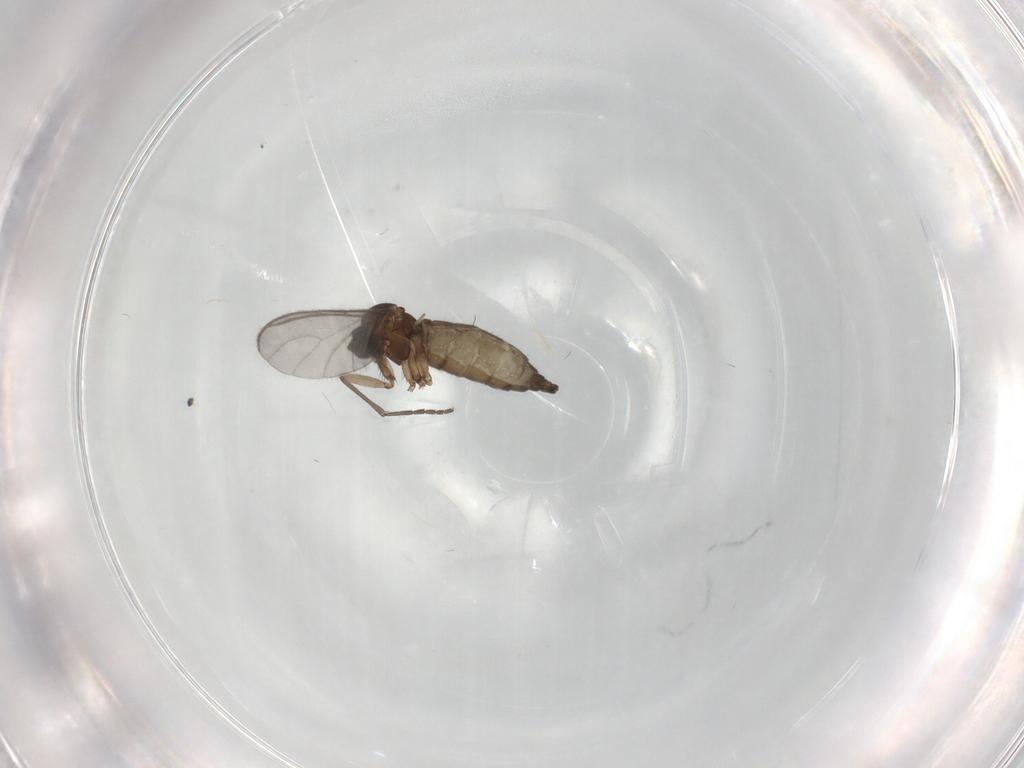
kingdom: Animalia
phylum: Arthropoda
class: Insecta
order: Diptera
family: Sciaridae
